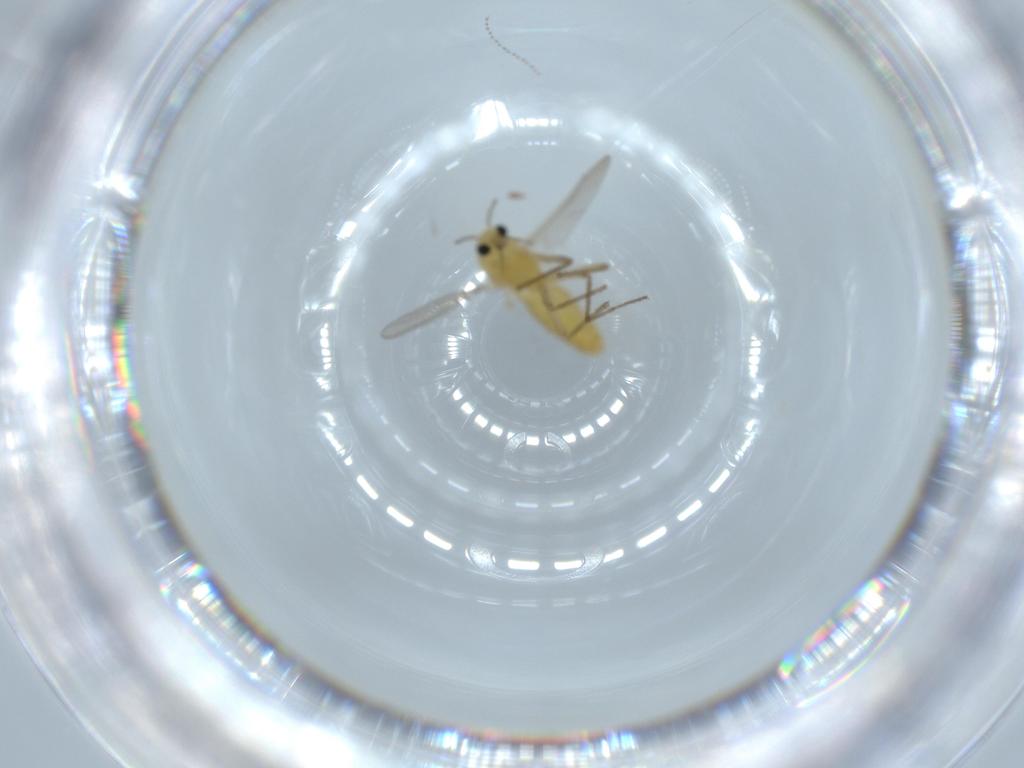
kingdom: Animalia
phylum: Arthropoda
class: Insecta
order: Diptera
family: Chironomidae
